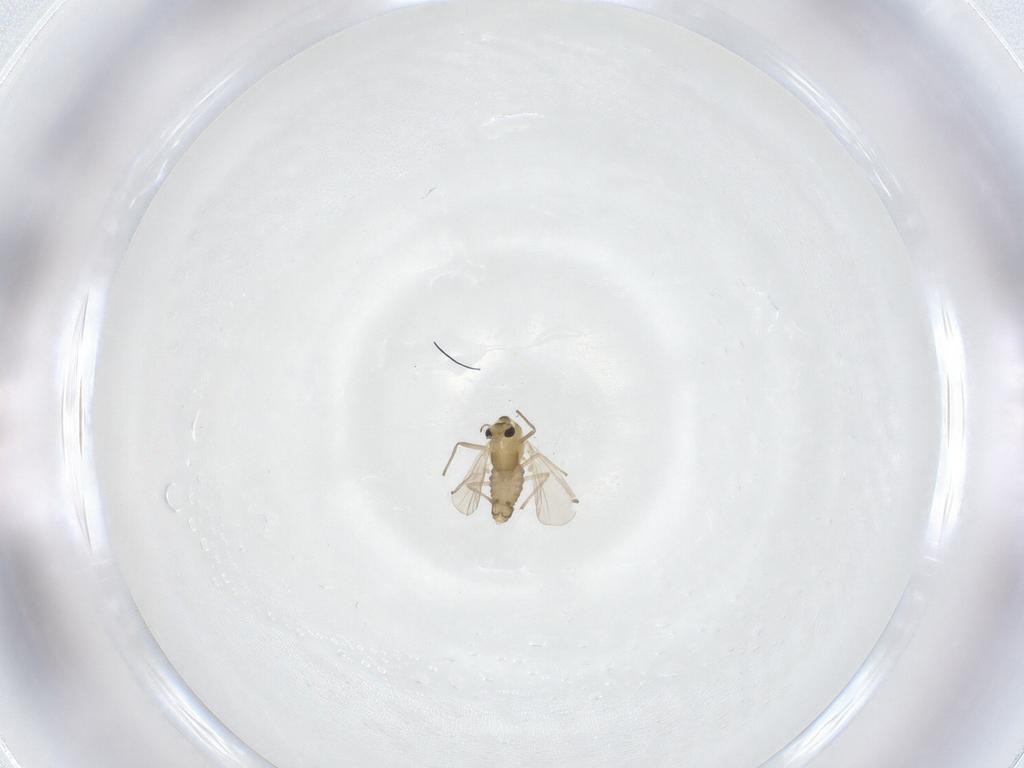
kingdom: Animalia
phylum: Arthropoda
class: Insecta
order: Diptera
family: Chironomidae
